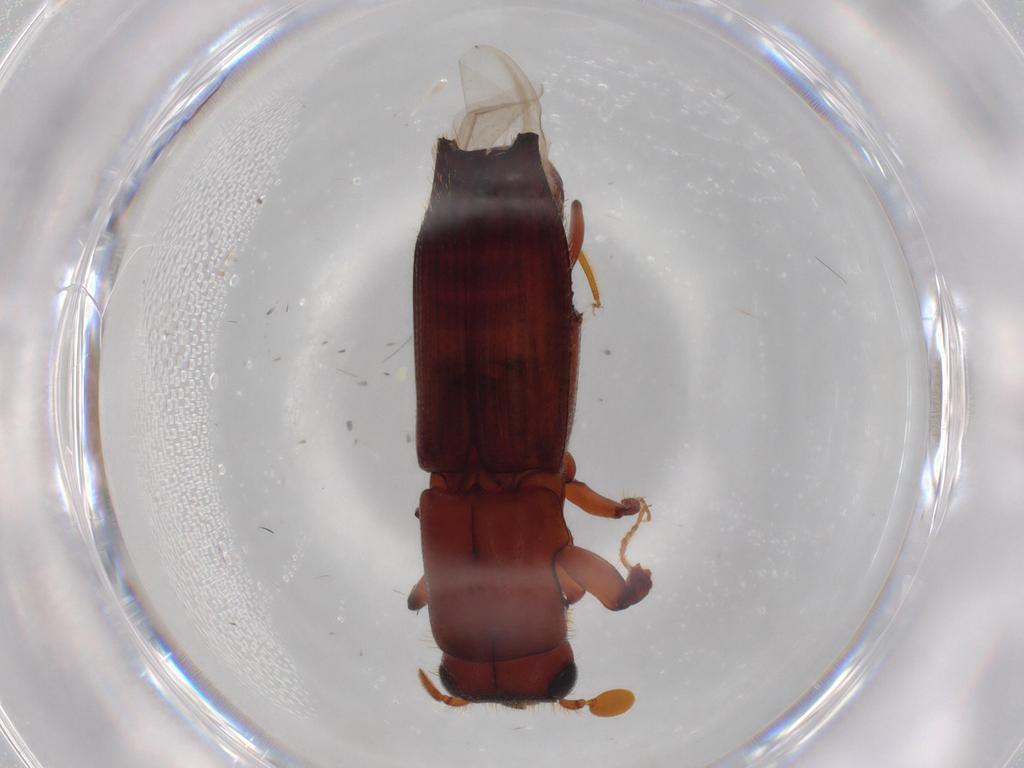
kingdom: Animalia
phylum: Arthropoda
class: Insecta
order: Coleoptera
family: Curculionidae
